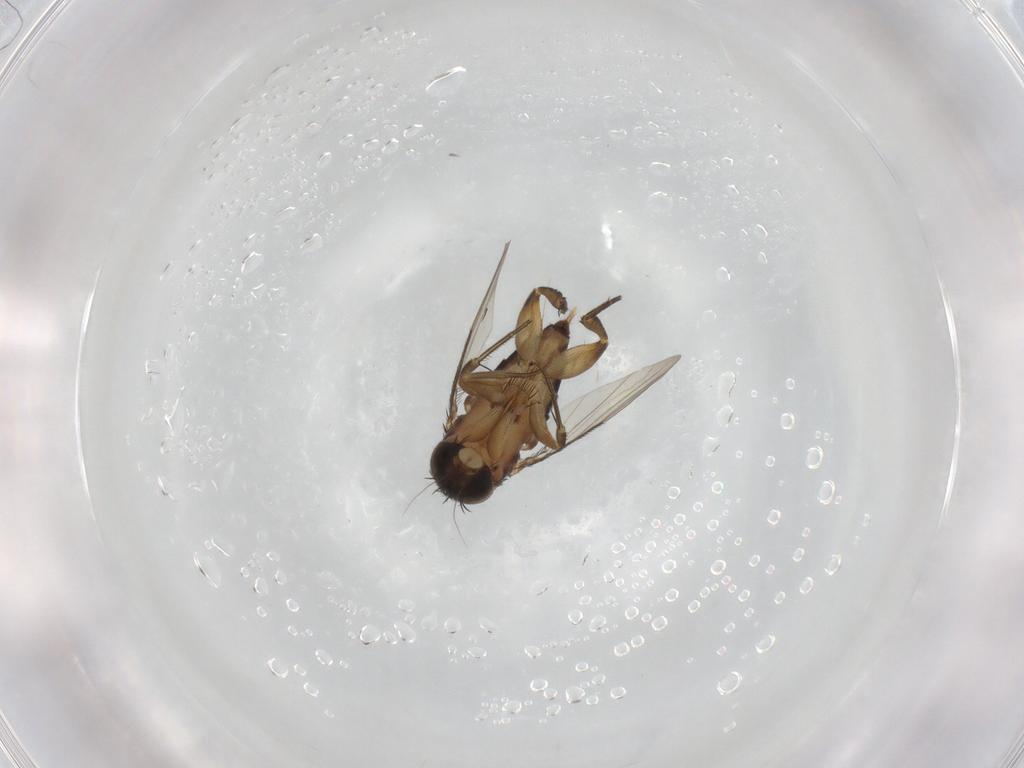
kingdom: Animalia
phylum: Arthropoda
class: Insecta
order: Diptera
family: Phoridae
